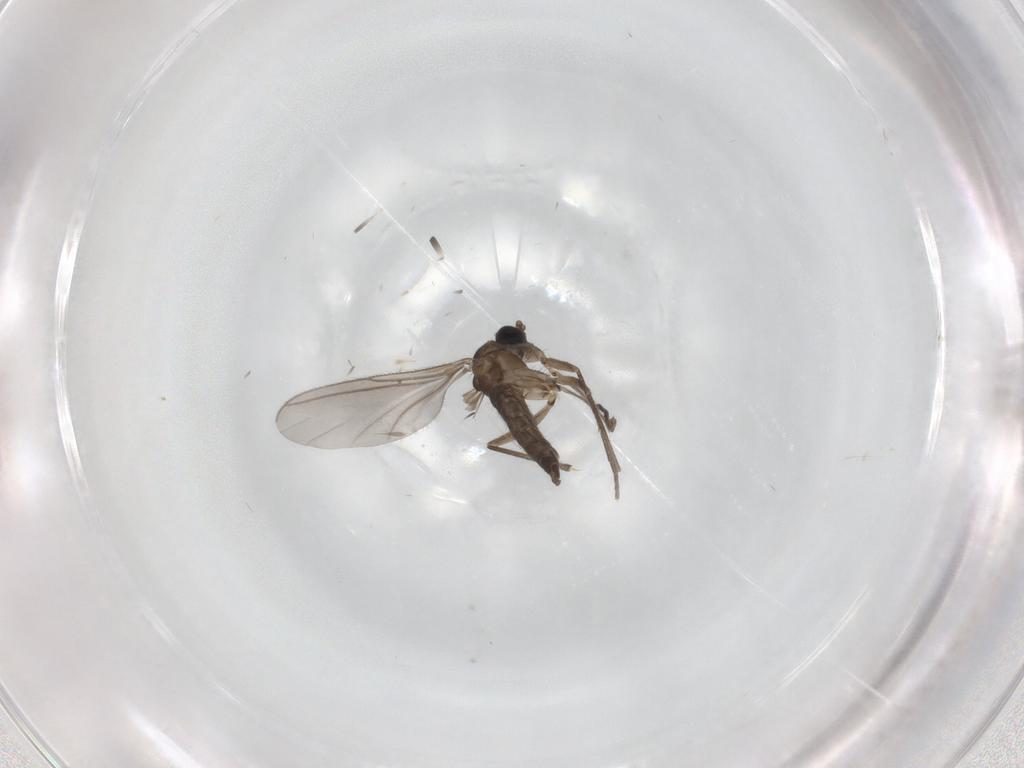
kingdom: Animalia
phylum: Arthropoda
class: Insecta
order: Diptera
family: Sciaridae
